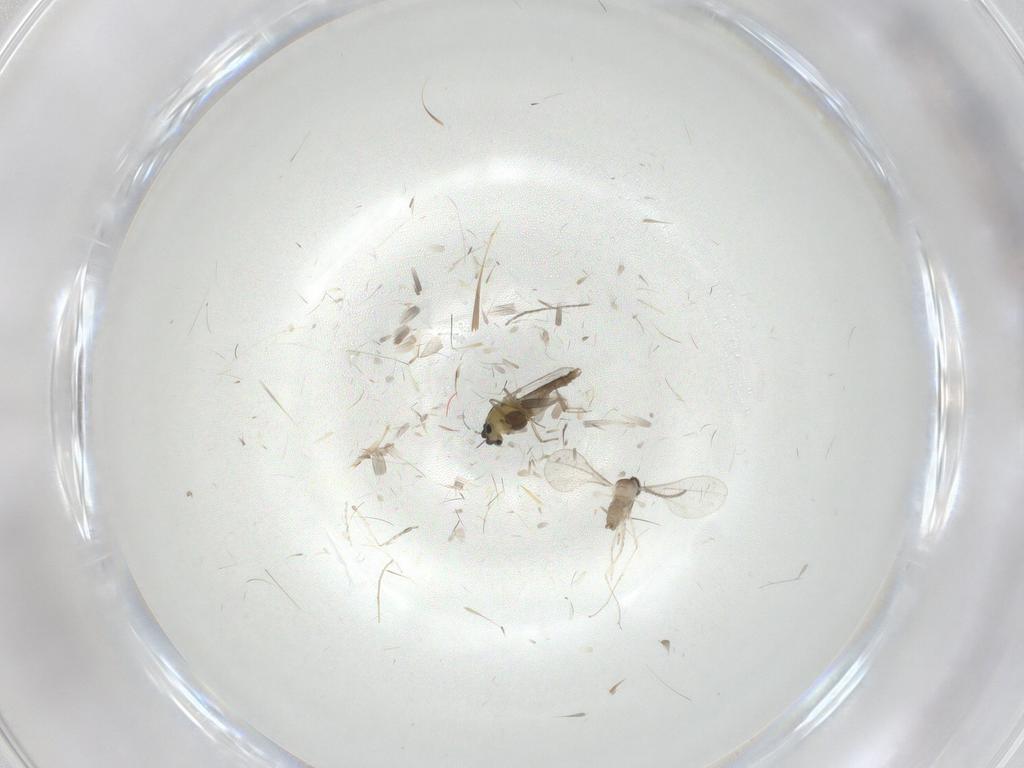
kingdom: Animalia
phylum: Arthropoda
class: Insecta
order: Diptera
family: Cecidomyiidae
